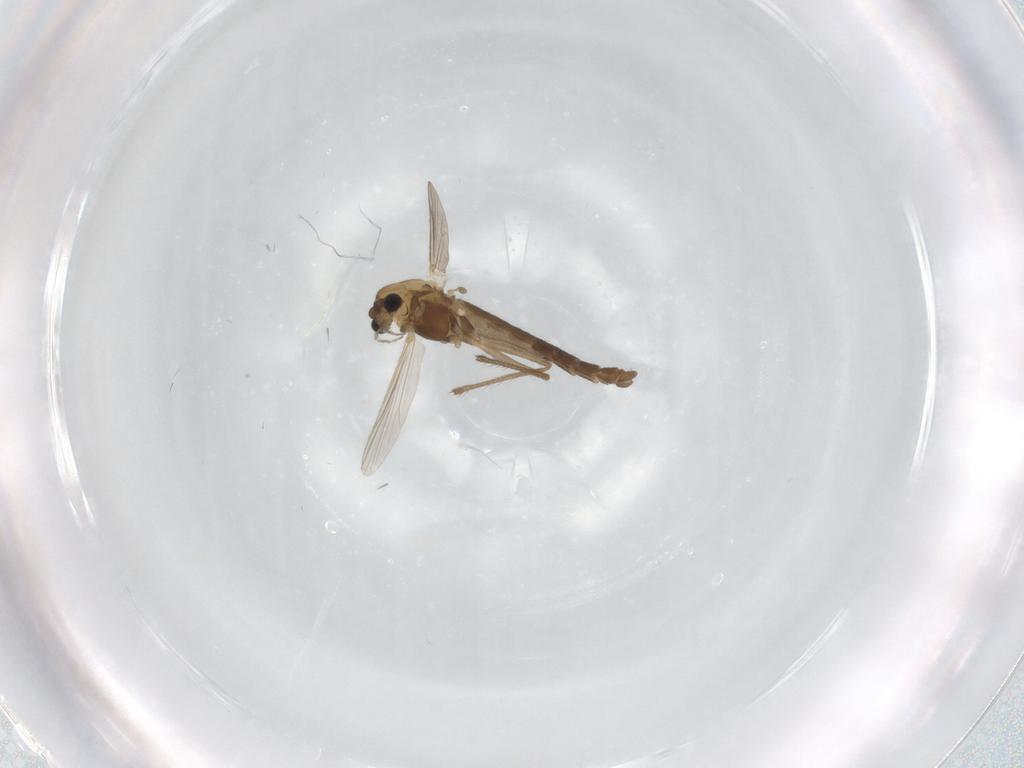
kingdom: Animalia
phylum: Arthropoda
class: Insecta
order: Diptera
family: Chironomidae
